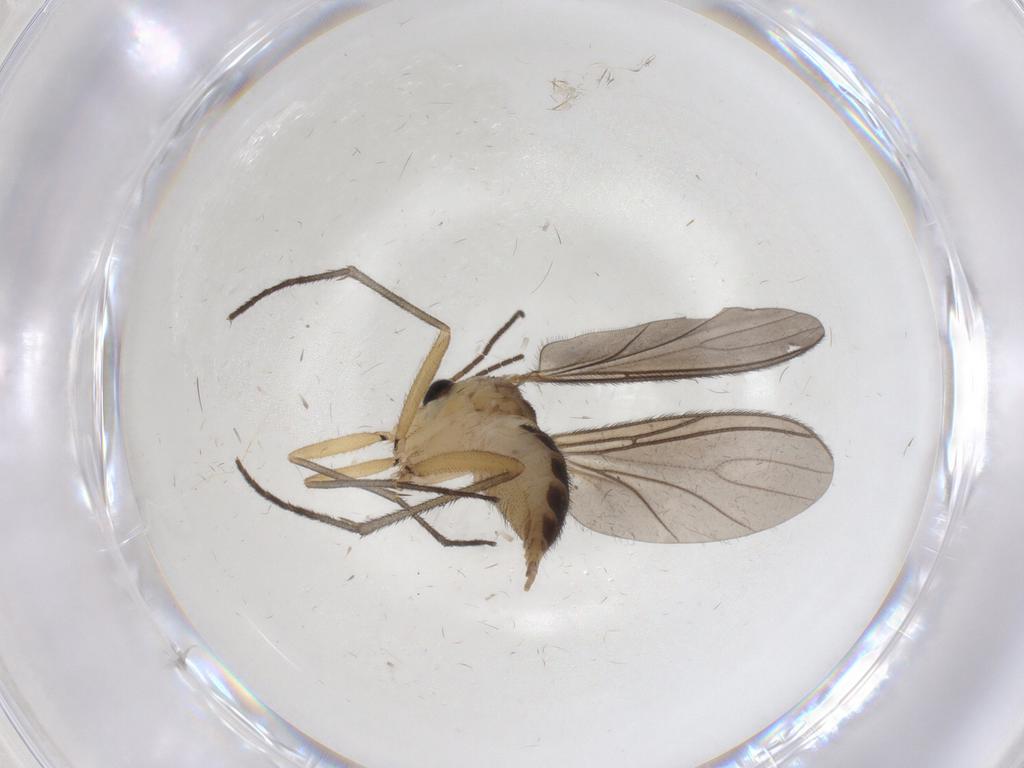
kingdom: Animalia
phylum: Arthropoda
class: Insecta
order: Diptera
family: Sciaridae
